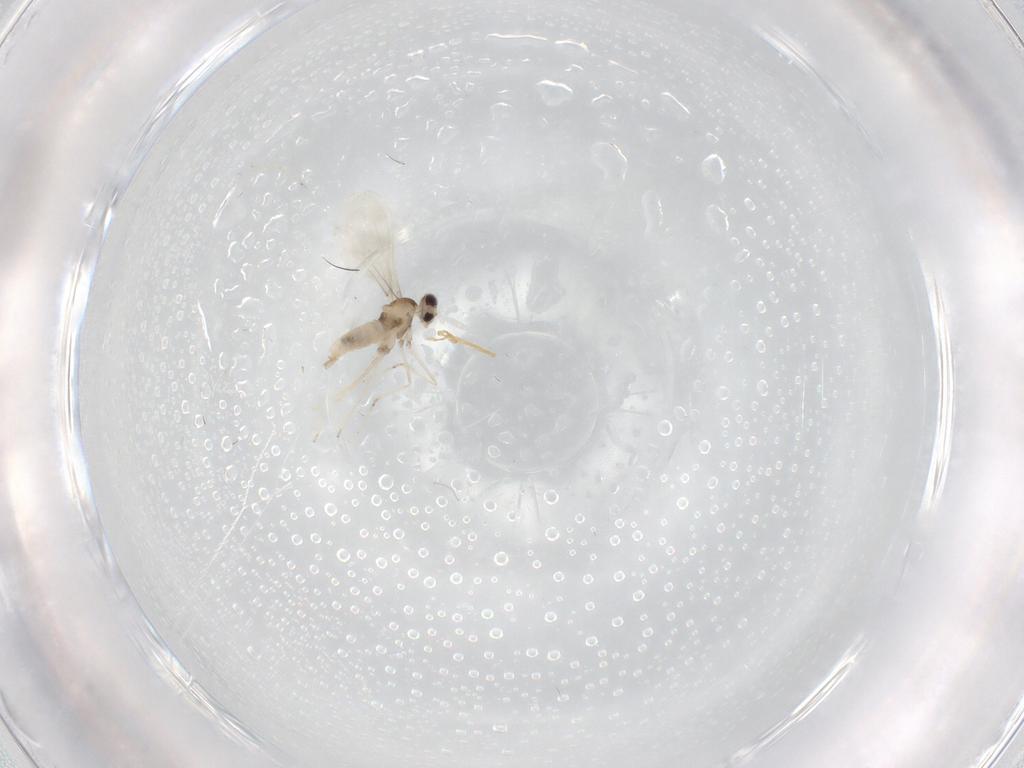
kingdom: Animalia
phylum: Arthropoda
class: Insecta
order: Diptera
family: Cecidomyiidae
